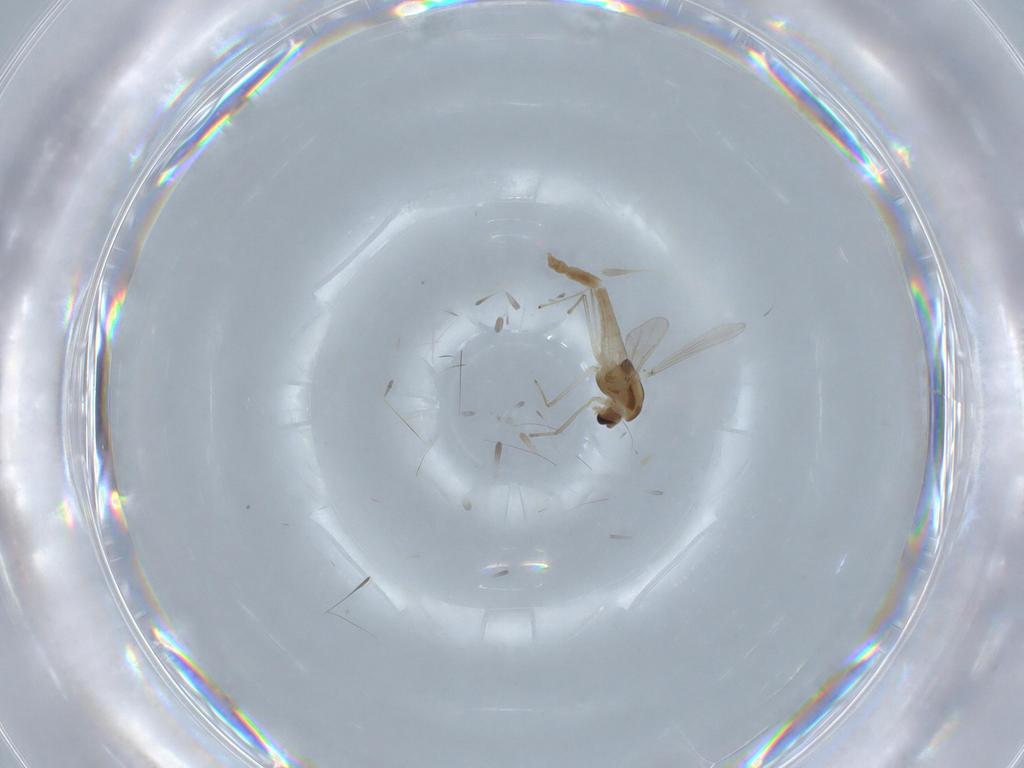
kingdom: Animalia
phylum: Arthropoda
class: Insecta
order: Diptera
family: Chironomidae
